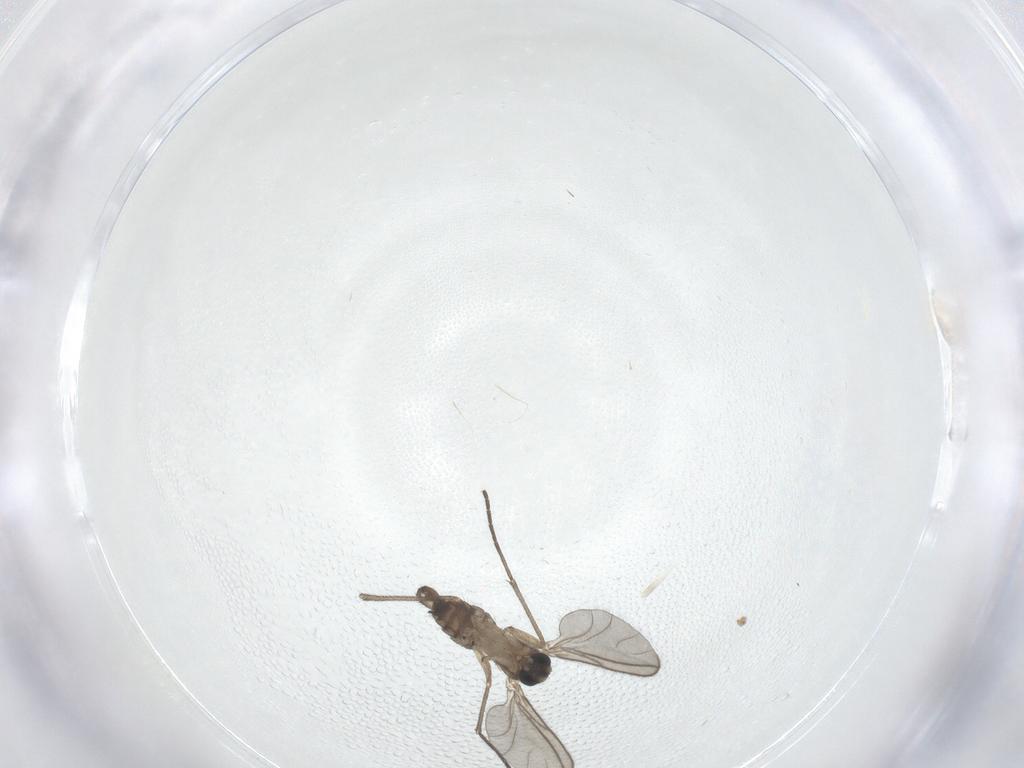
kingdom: Animalia
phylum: Arthropoda
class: Insecta
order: Diptera
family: Sciaridae
